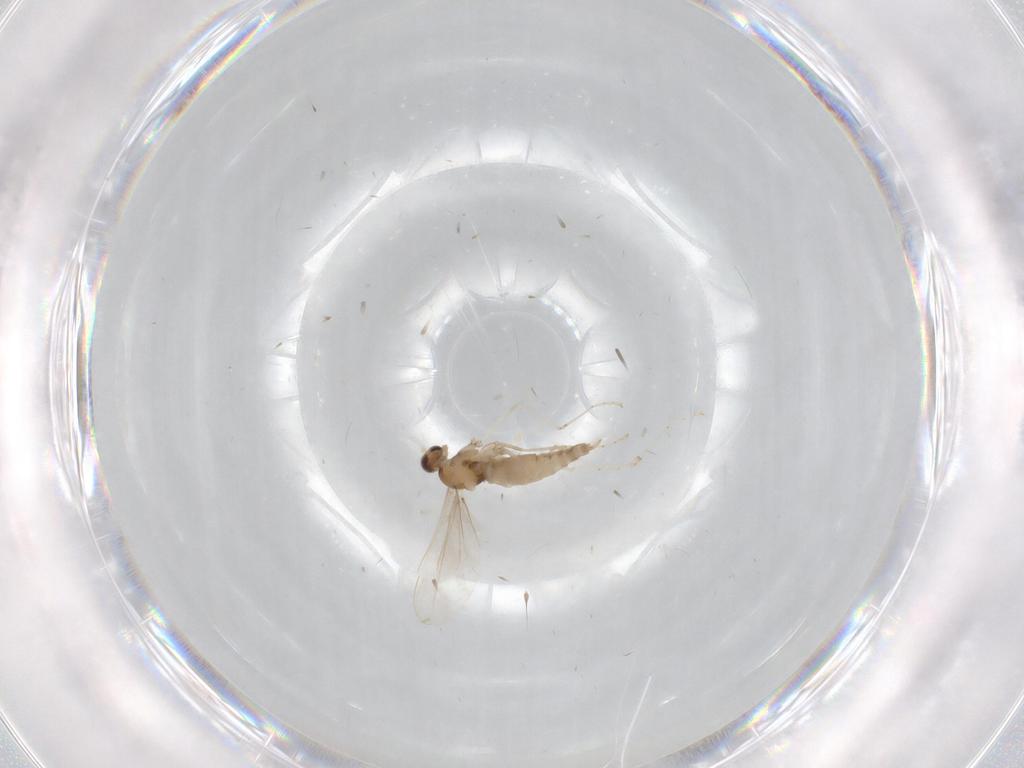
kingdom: Animalia
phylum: Arthropoda
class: Insecta
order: Diptera
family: Cecidomyiidae
